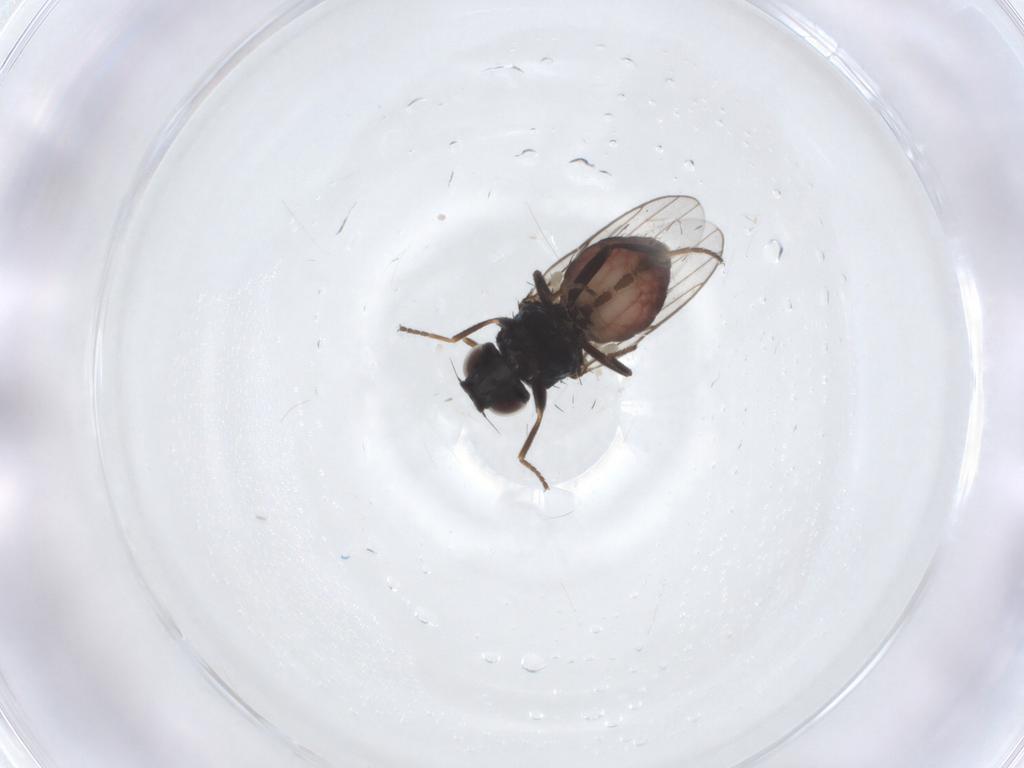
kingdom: Animalia
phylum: Arthropoda
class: Insecta
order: Diptera
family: Chloropidae
